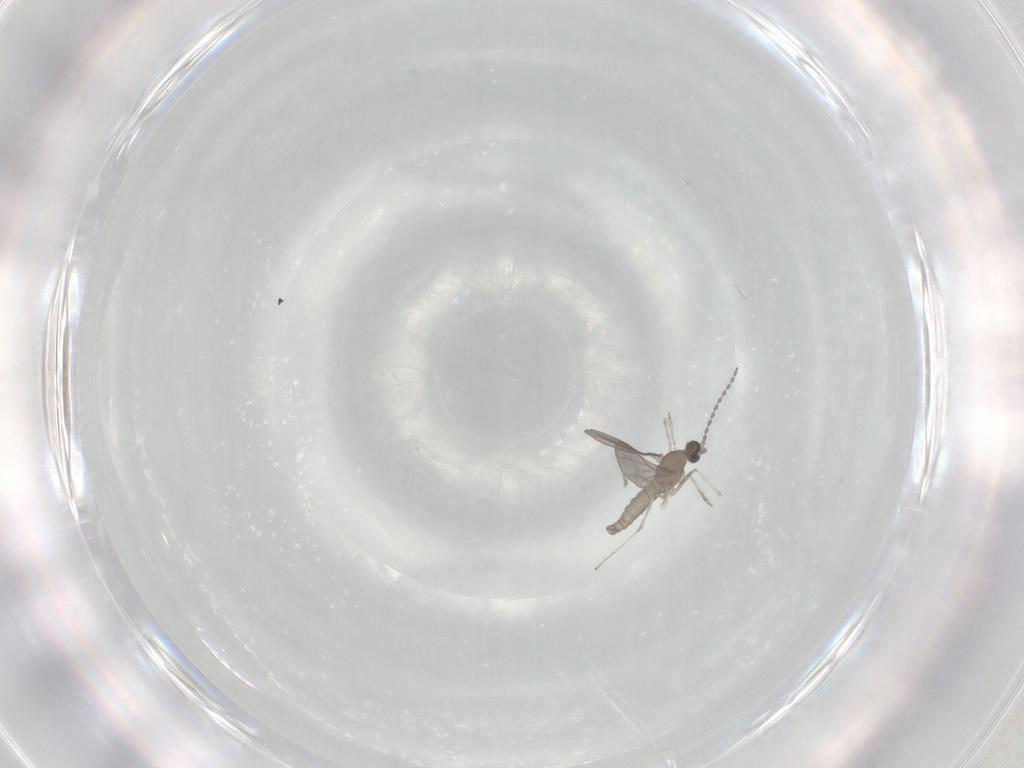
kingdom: Animalia
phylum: Arthropoda
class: Insecta
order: Diptera
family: Cecidomyiidae
